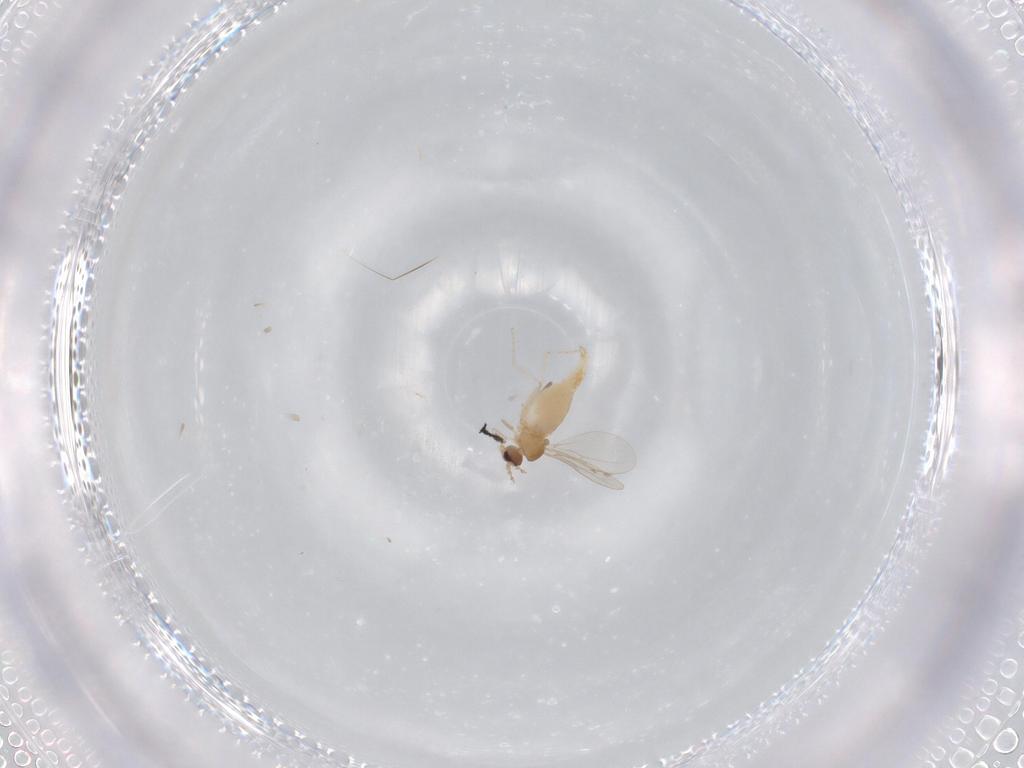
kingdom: Animalia
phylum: Arthropoda
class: Insecta
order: Diptera
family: Cecidomyiidae
